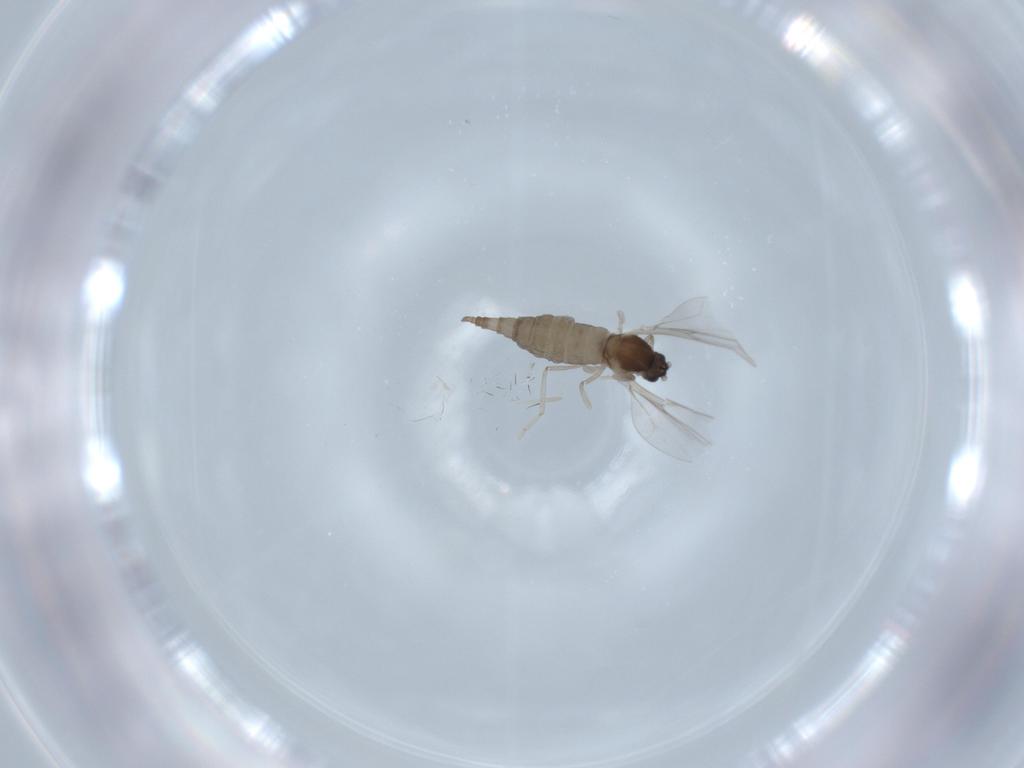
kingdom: Animalia
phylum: Arthropoda
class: Insecta
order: Diptera
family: Cecidomyiidae
